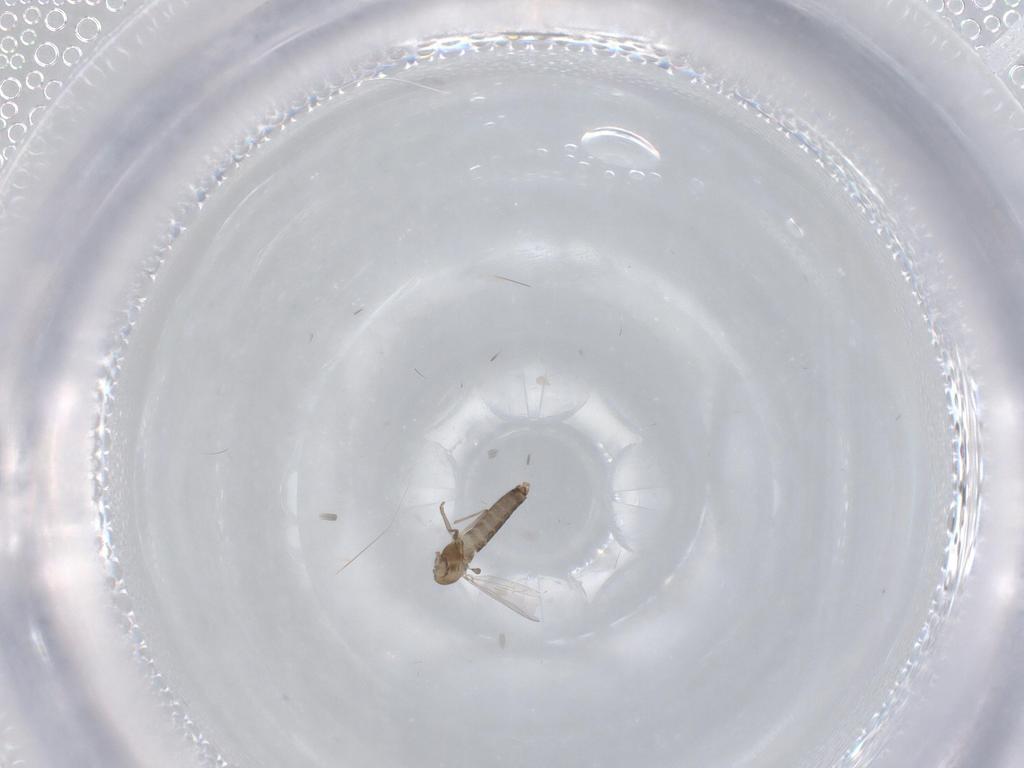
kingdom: Animalia
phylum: Arthropoda
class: Insecta
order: Diptera
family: Chironomidae
